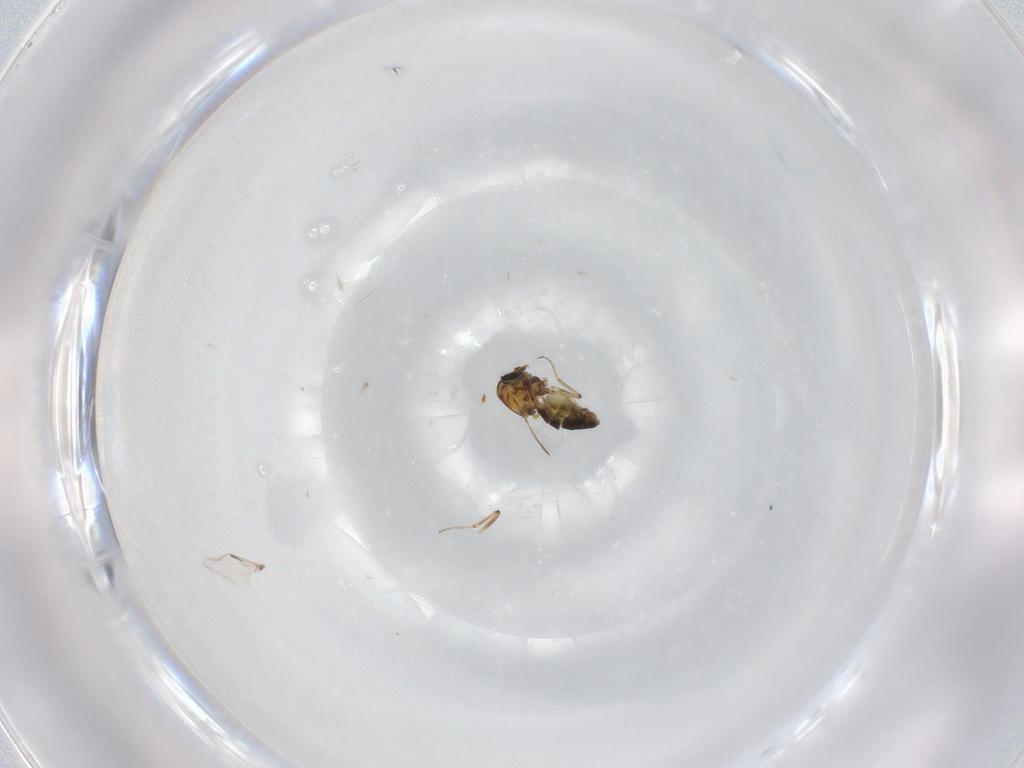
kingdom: Animalia
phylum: Arthropoda
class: Insecta
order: Diptera
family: Ceratopogonidae
